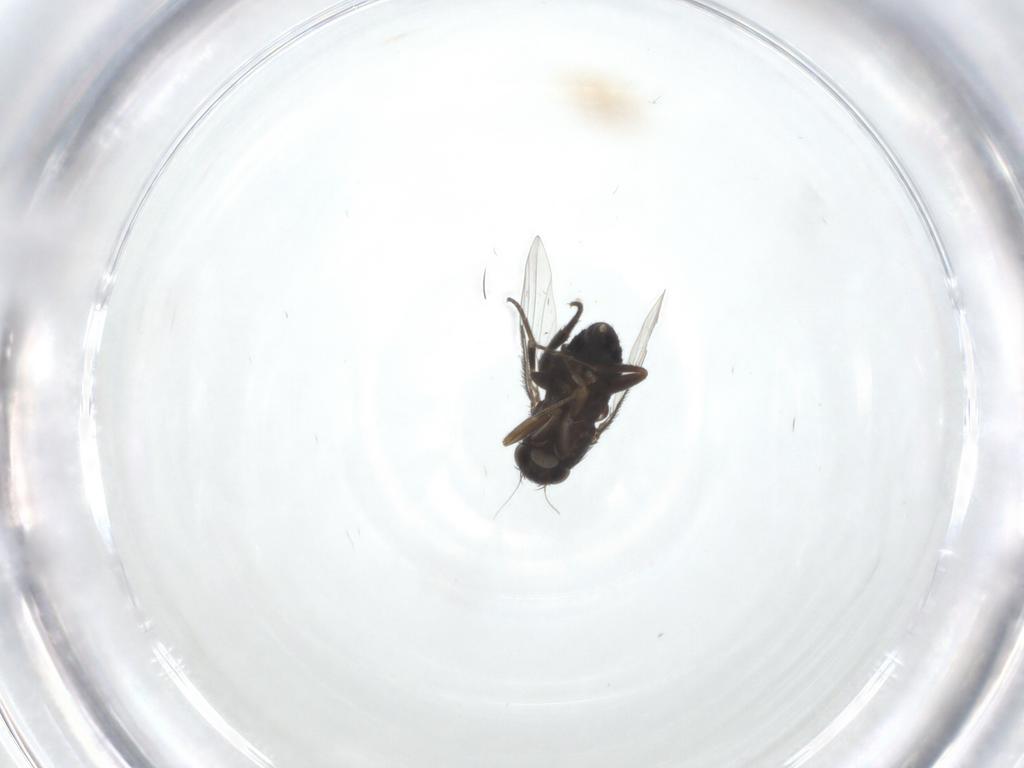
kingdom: Animalia
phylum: Arthropoda
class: Insecta
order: Diptera
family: Phoridae
